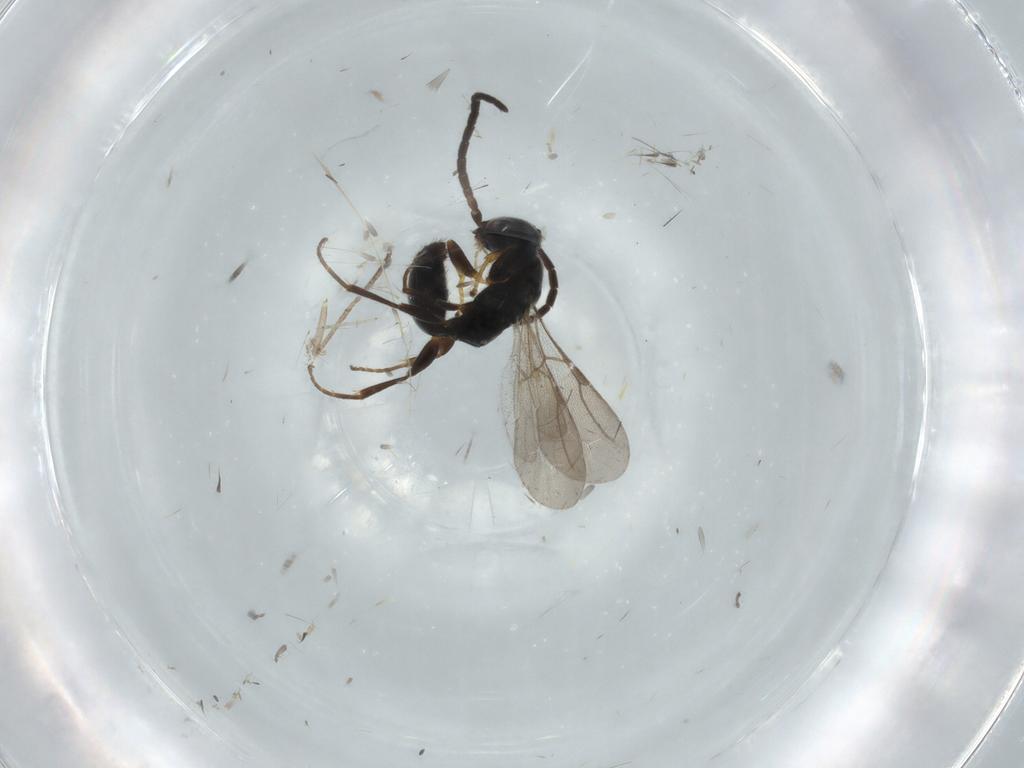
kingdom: Animalia
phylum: Arthropoda
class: Insecta
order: Hymenoptera
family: Bethylidae
